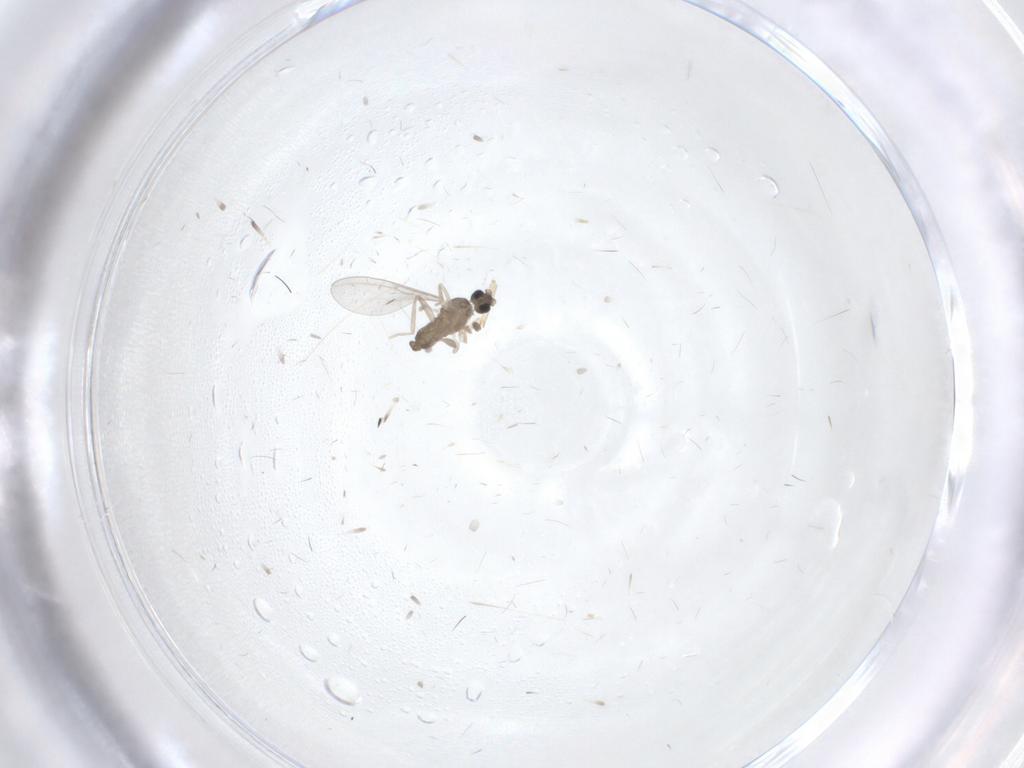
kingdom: Animalia
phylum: Arthropoda
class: Insecta
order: Diptera
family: Cecidomyiidae
